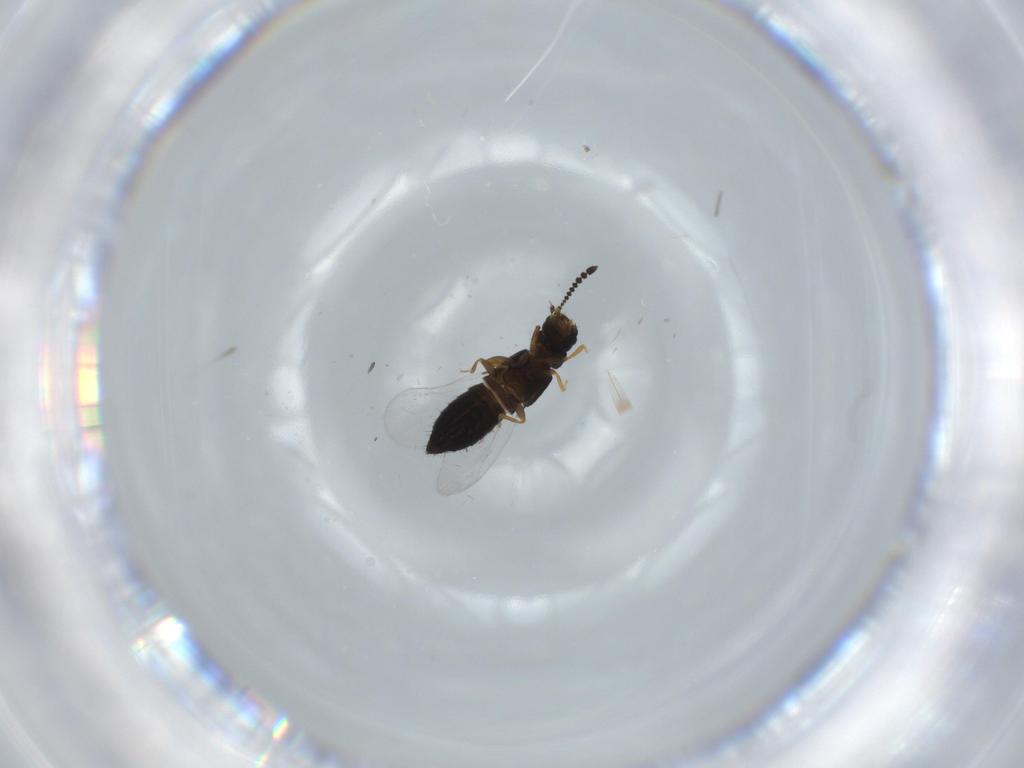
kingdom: Animalia
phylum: Arthropoda
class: Insecta
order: Coleoptera
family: Staphylinidae
